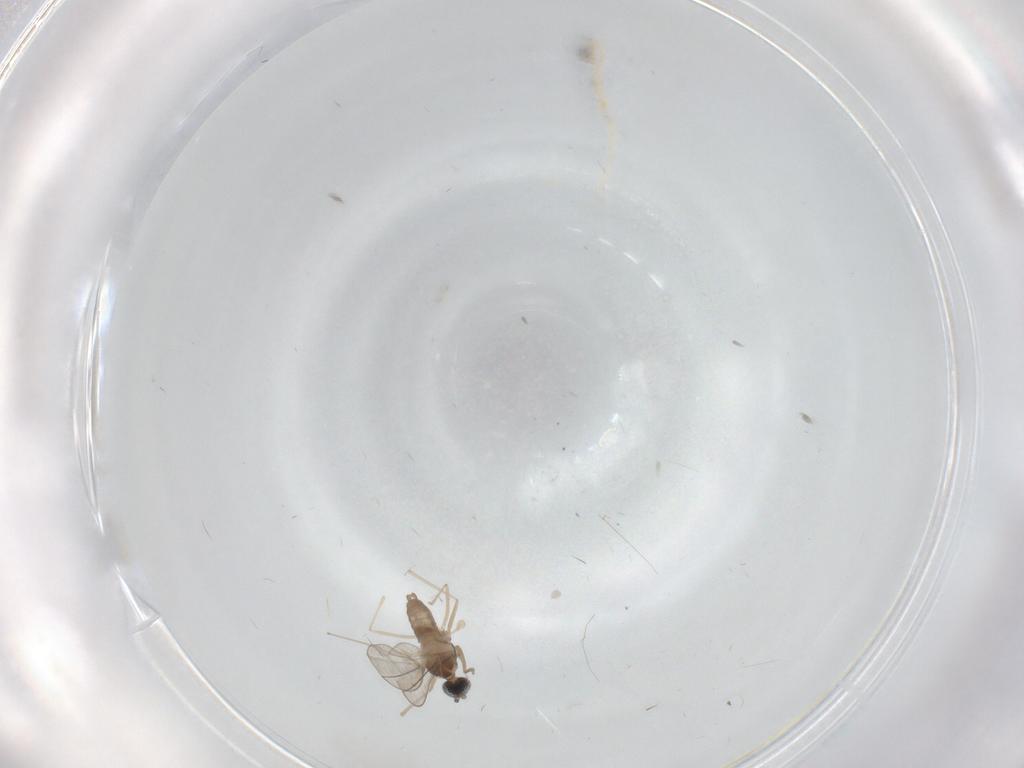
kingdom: Animalia
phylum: Arthropoda
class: Insecta
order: Diptera
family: Cecidomyiidae
